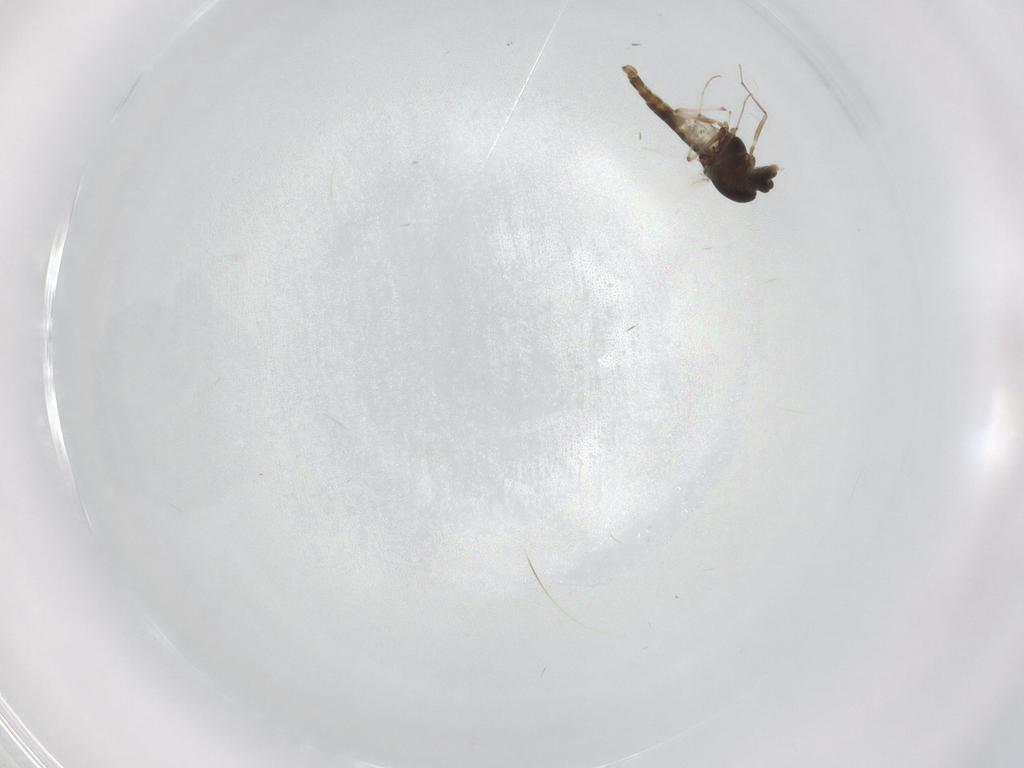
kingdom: Animalia
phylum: Arthropoda
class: Insecta
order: Diptera
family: Chironomidae
